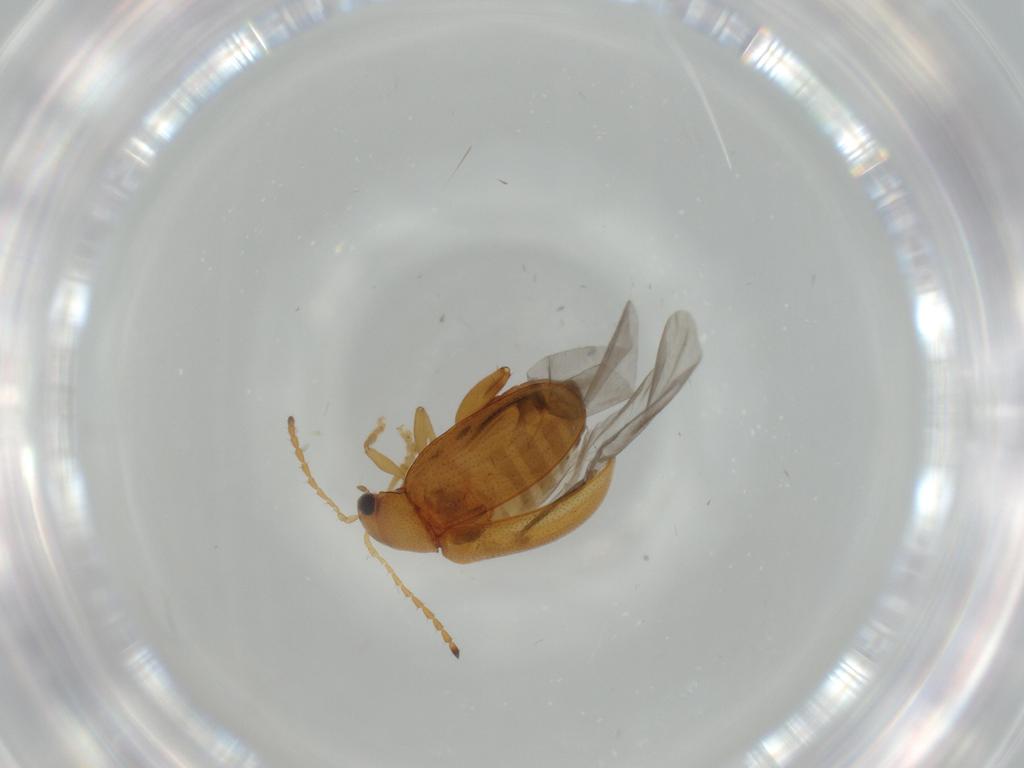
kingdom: Animalia
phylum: Arthropoda
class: Insecta
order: Coleoptera
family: Chrysomelidae
